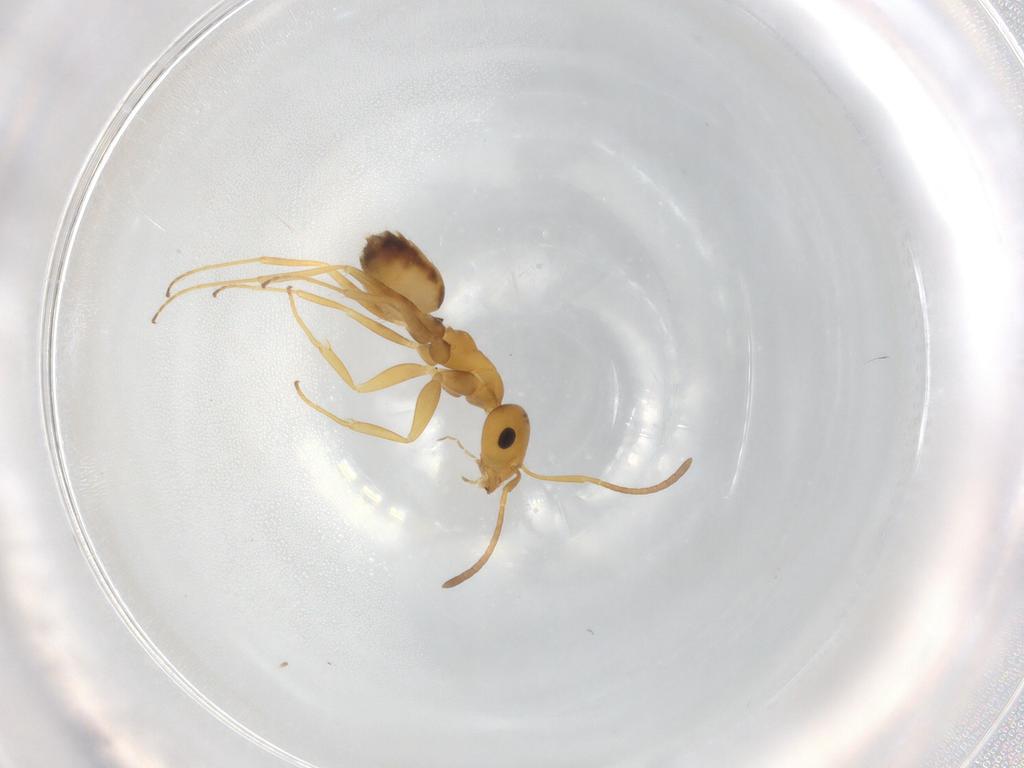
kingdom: Animalia
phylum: Arthropoda
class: Insecta
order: Hymenoptera
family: Formicidae
